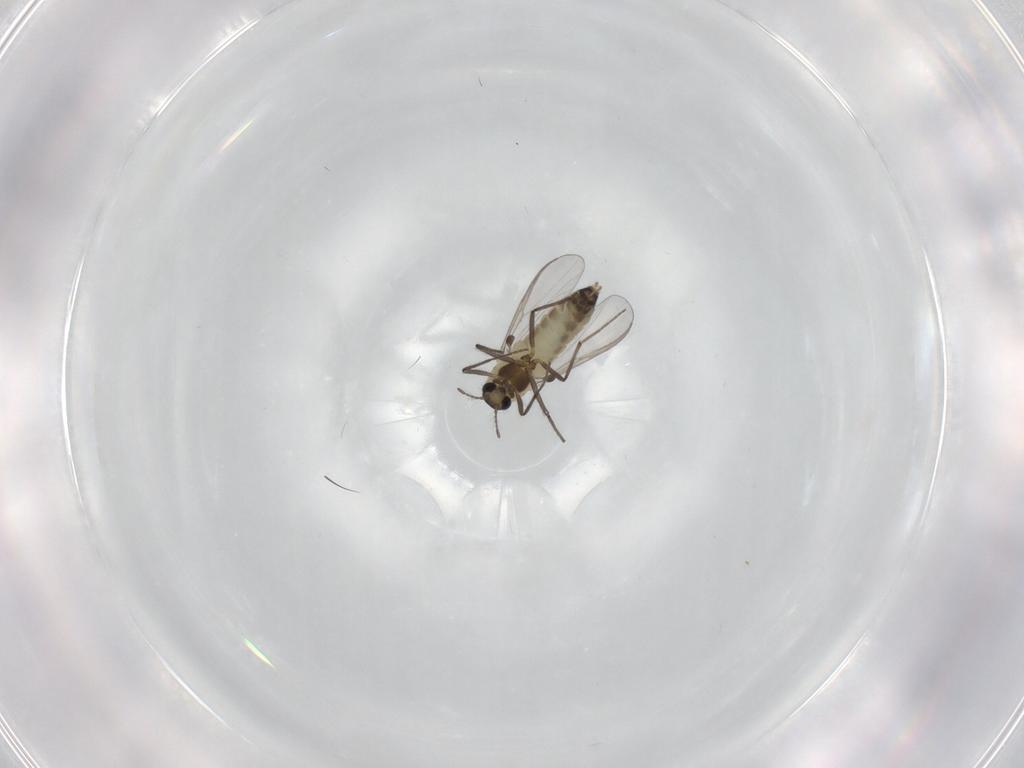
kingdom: Animalia
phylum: Arthropoda
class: Insecta
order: Diptera
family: Chironomidae
